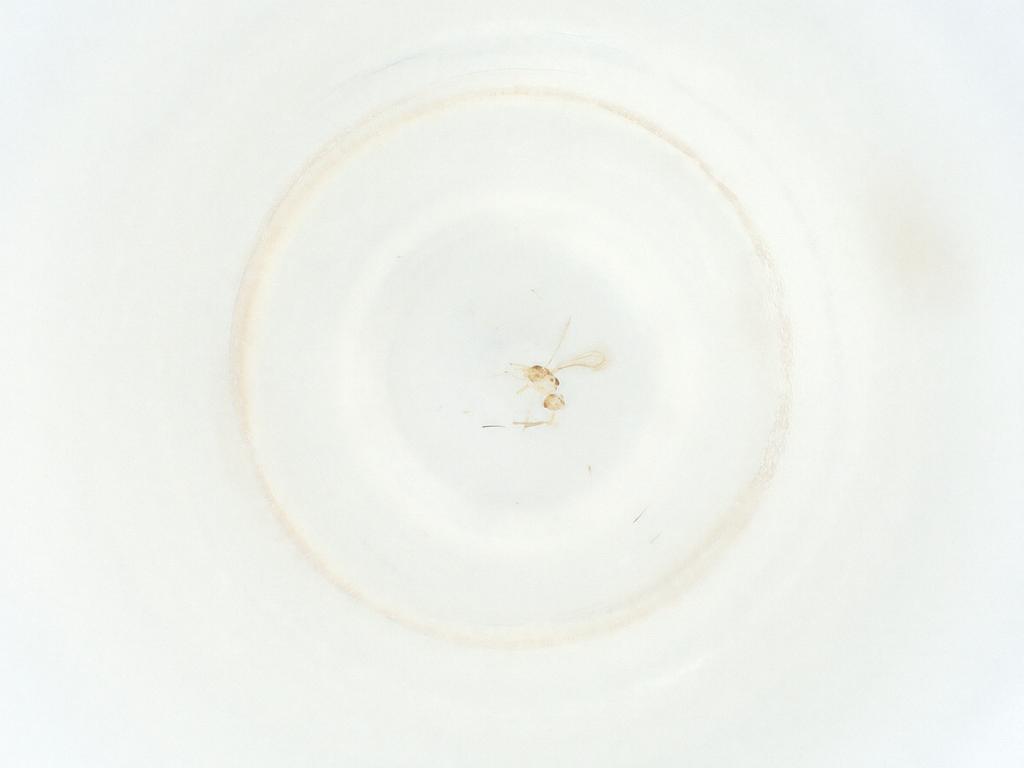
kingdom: Animalia
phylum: Arthropoda
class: Insecta
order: Hemiptera
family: Miridae
